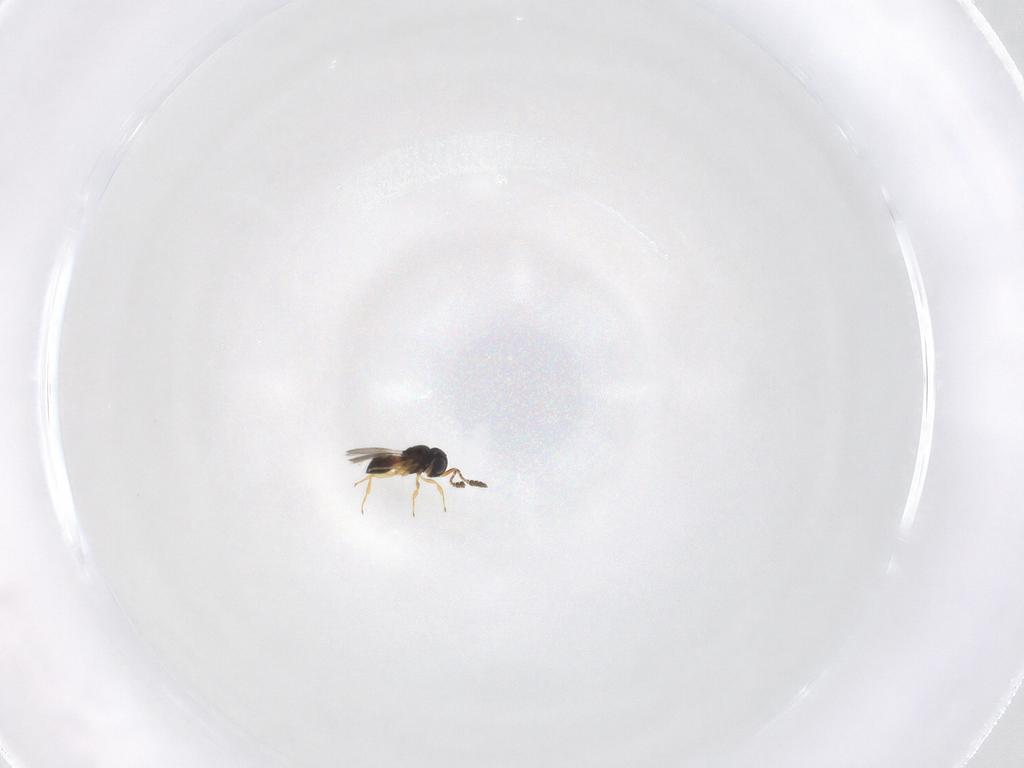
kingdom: Animalia
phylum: Arthropoda
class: Insecta
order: Hymenoptera
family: Scelionidae
